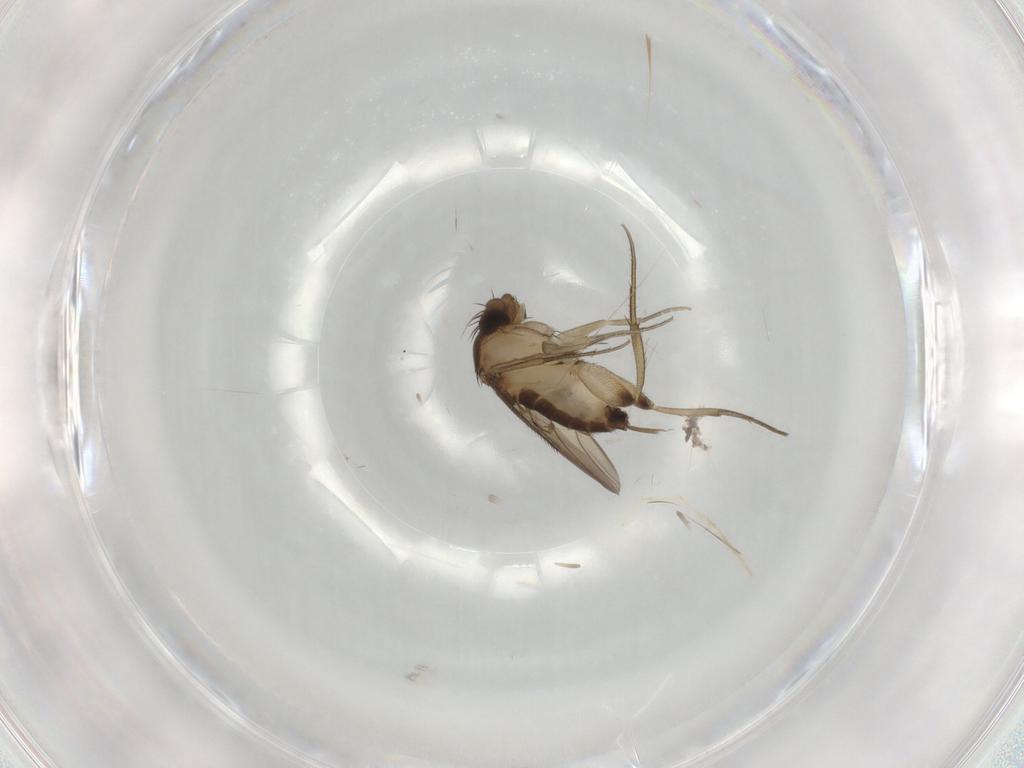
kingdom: Animalia
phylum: Arthropoda
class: Insecta
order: Diptera
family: Phoridae
